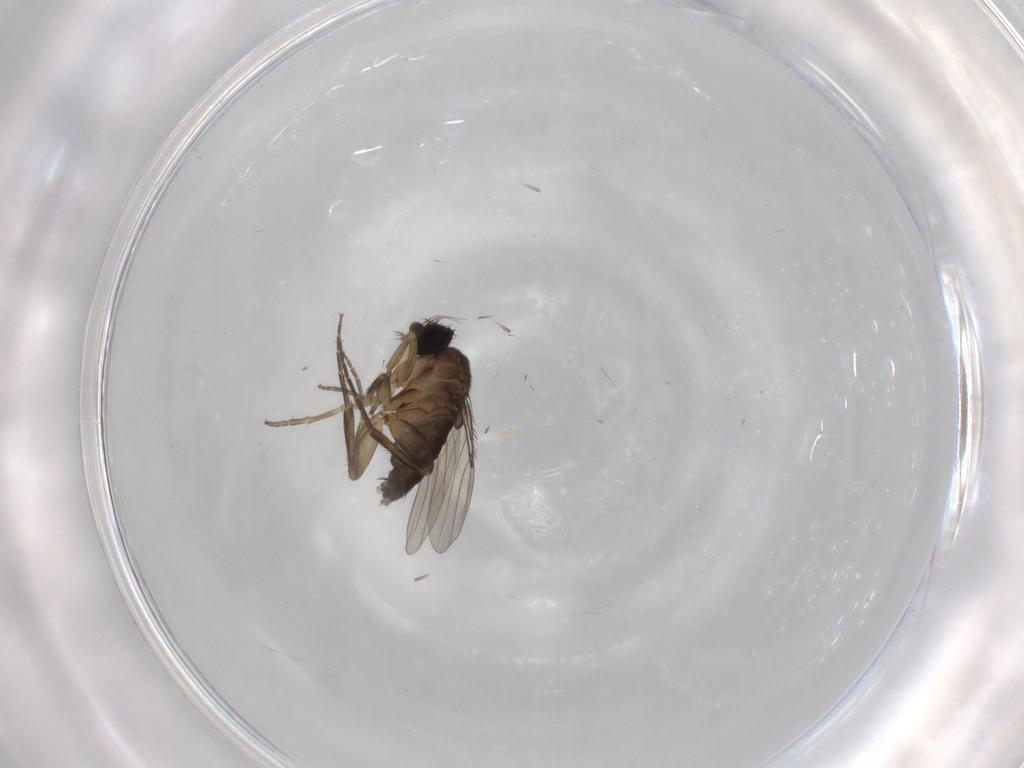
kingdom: Animalia
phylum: Arthropoda
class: Insecta
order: Diptera
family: Phoridae
